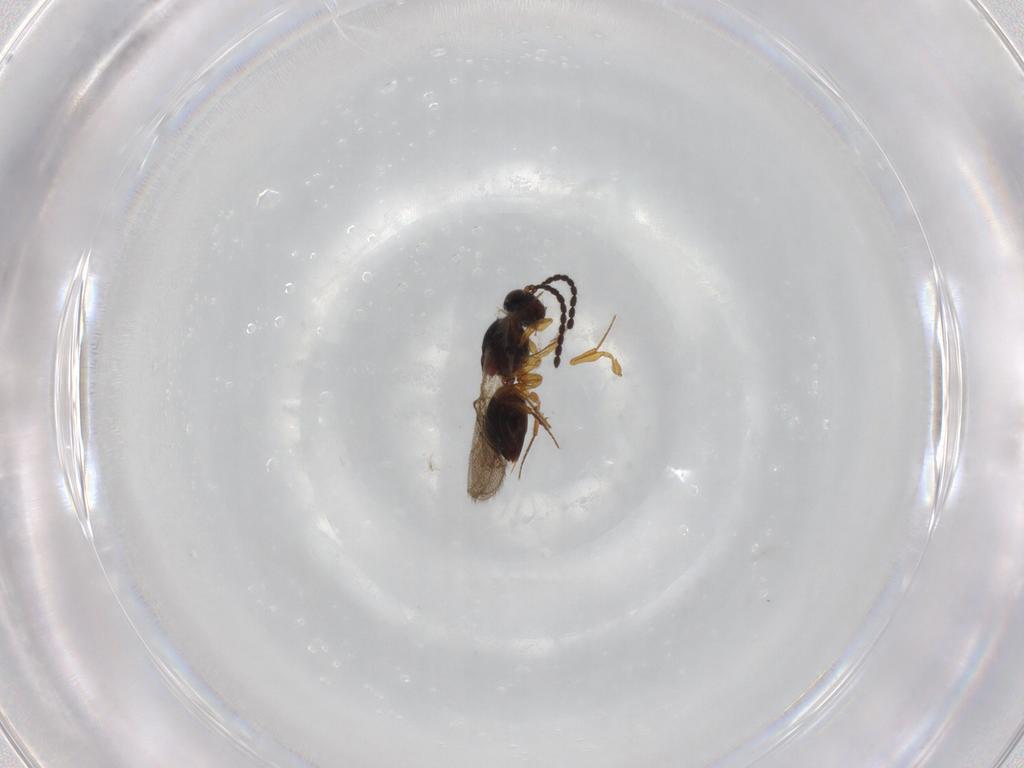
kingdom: Animalia
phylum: Arthropoda
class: Insecta
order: Hymenoptera
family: Figitidae
